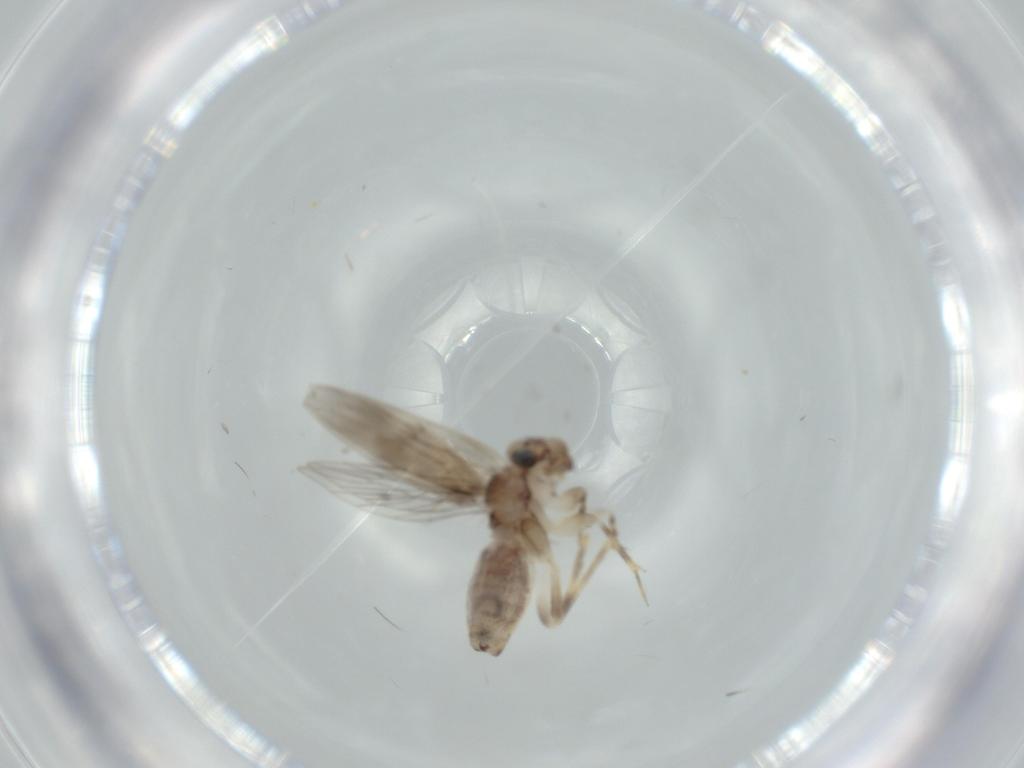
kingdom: Animalia
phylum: Arthropoda
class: Insecta
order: Psocodea
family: Lepidopsocidae
